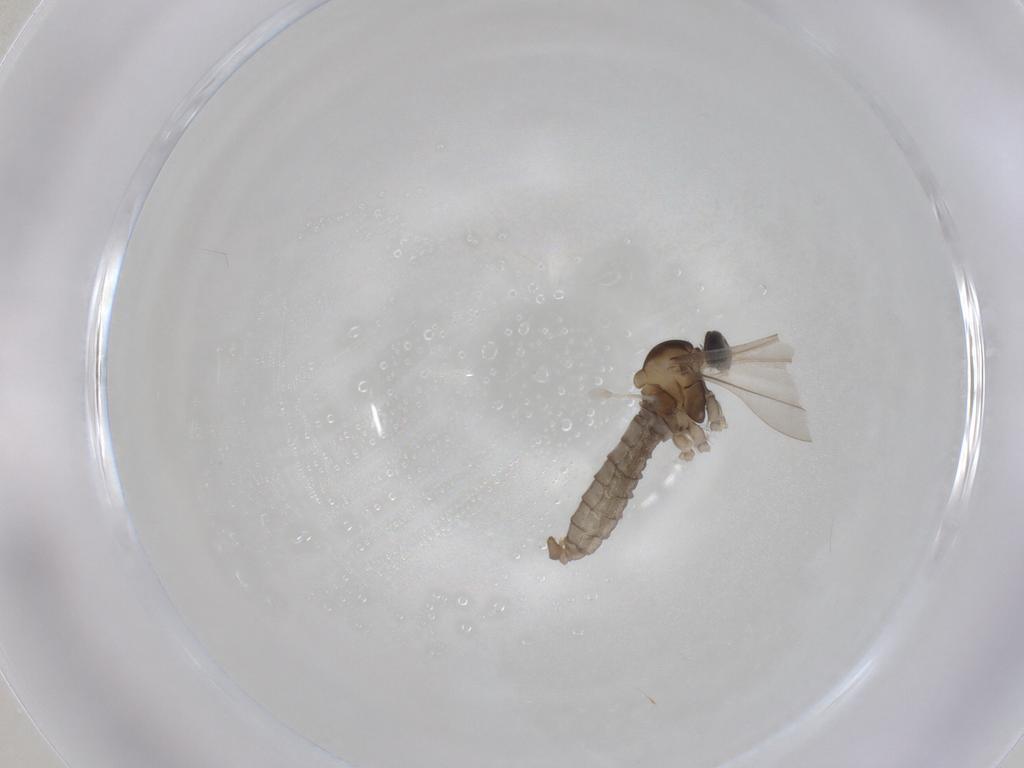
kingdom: Animalia
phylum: Arthropoda
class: Insecta
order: Diptera
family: Cecidomyiidae
